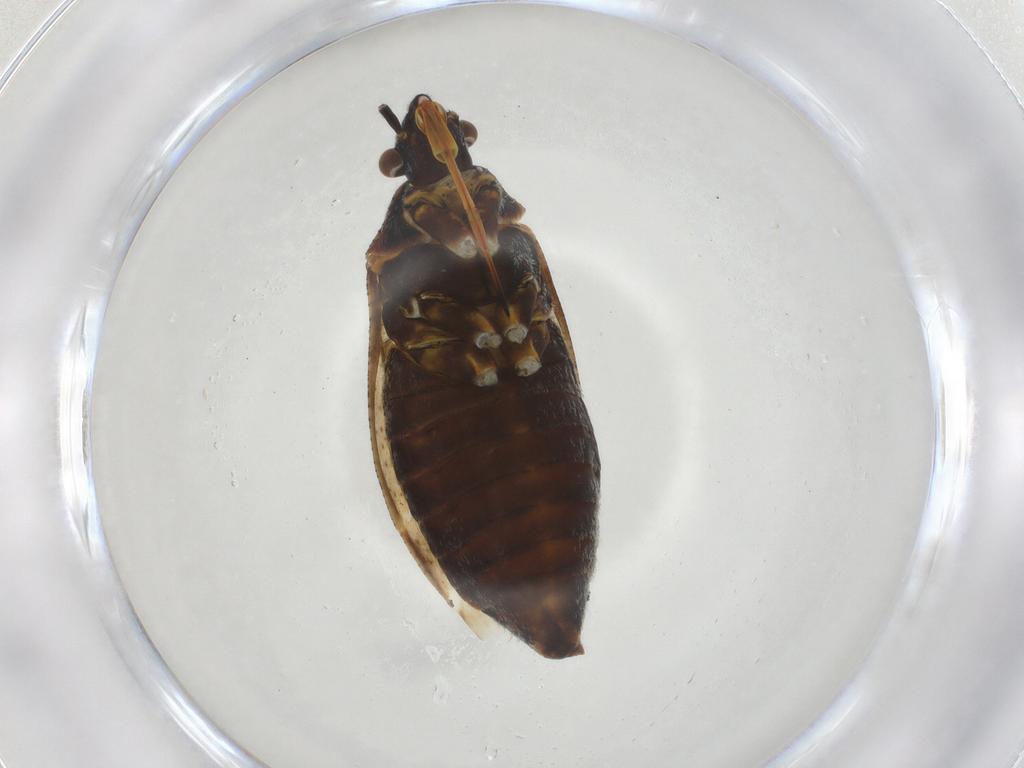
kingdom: Animalia
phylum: Arthropoda
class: Insecta
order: Hemiptera
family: Miridae
